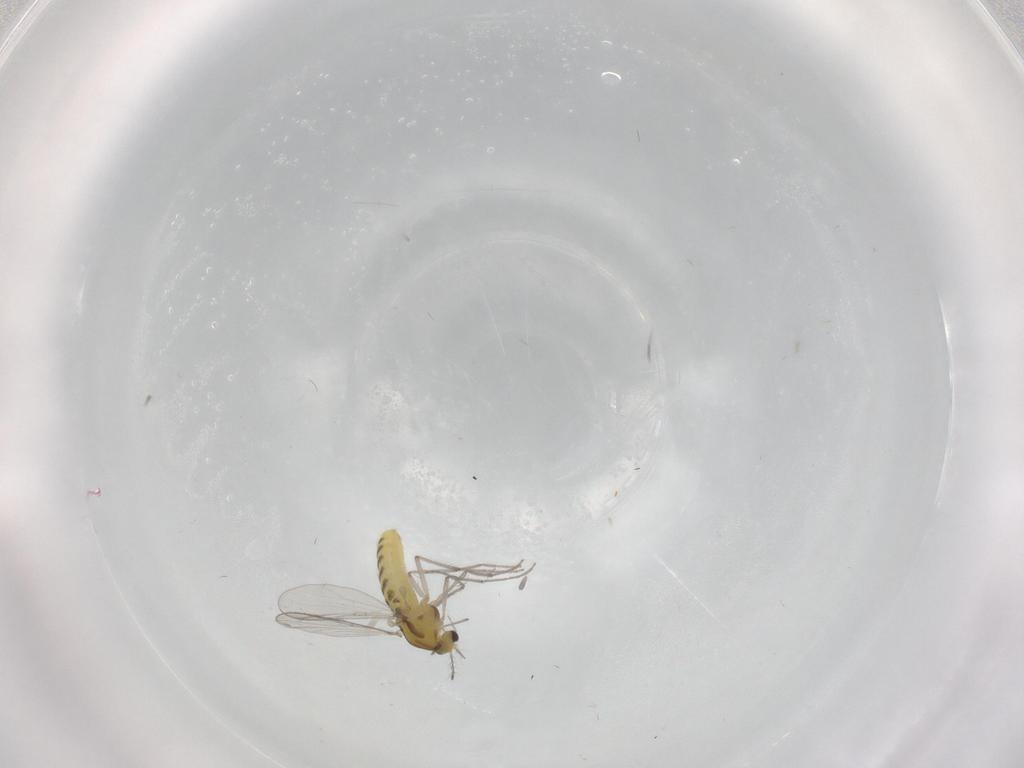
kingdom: Animalia
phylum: Arthropoda
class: Insecta
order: Diptera
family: Chironomidae
